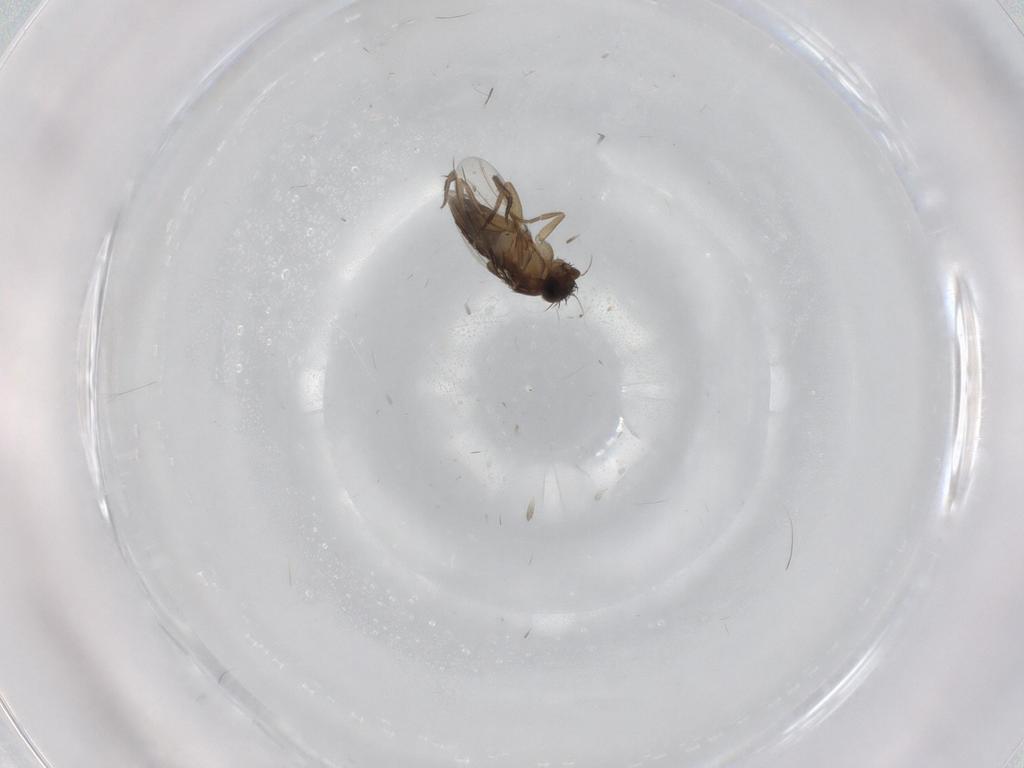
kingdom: Animalia
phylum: Arthropoda
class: Insecta
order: Diptera
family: Phoridae
